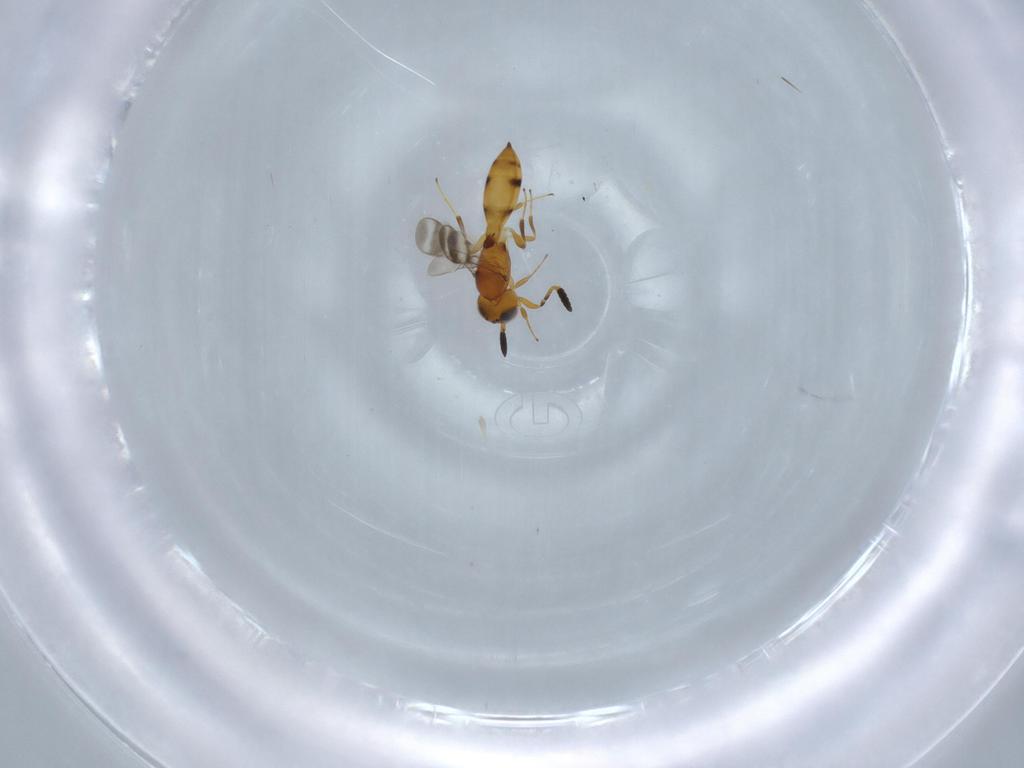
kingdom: Animalia
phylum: Arthropoda
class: Insecta
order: Hymenoptera
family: Scelionidae
